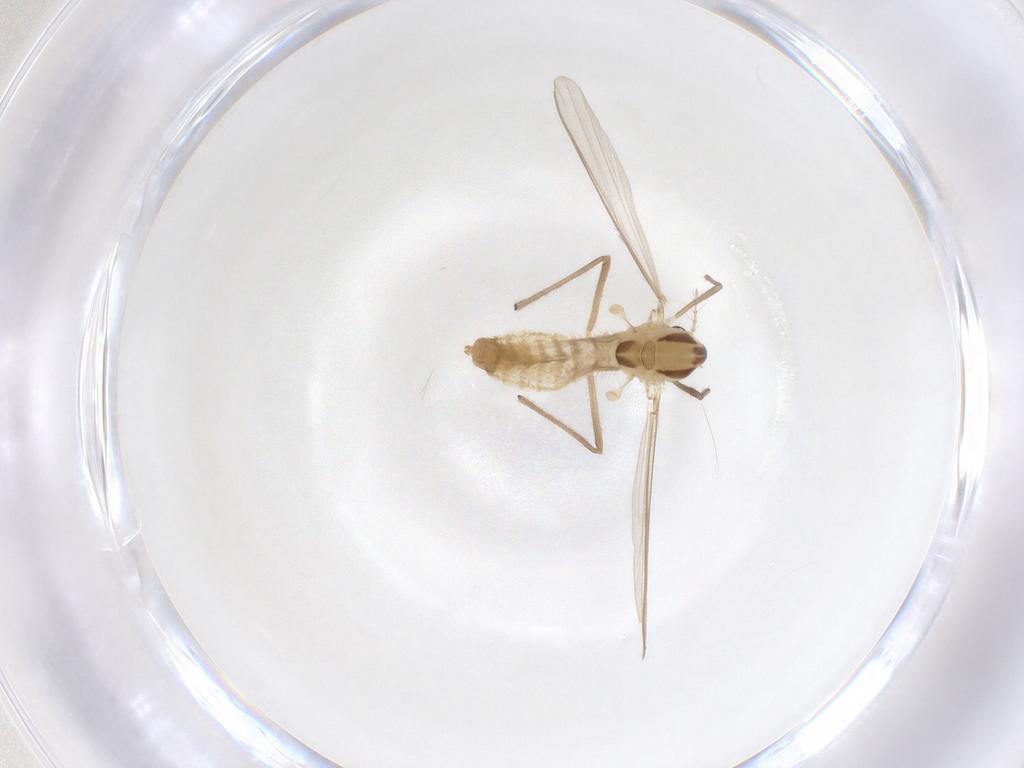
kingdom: Animalia
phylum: Arthropoda
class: Insecta
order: Diptera
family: Chironomidae
